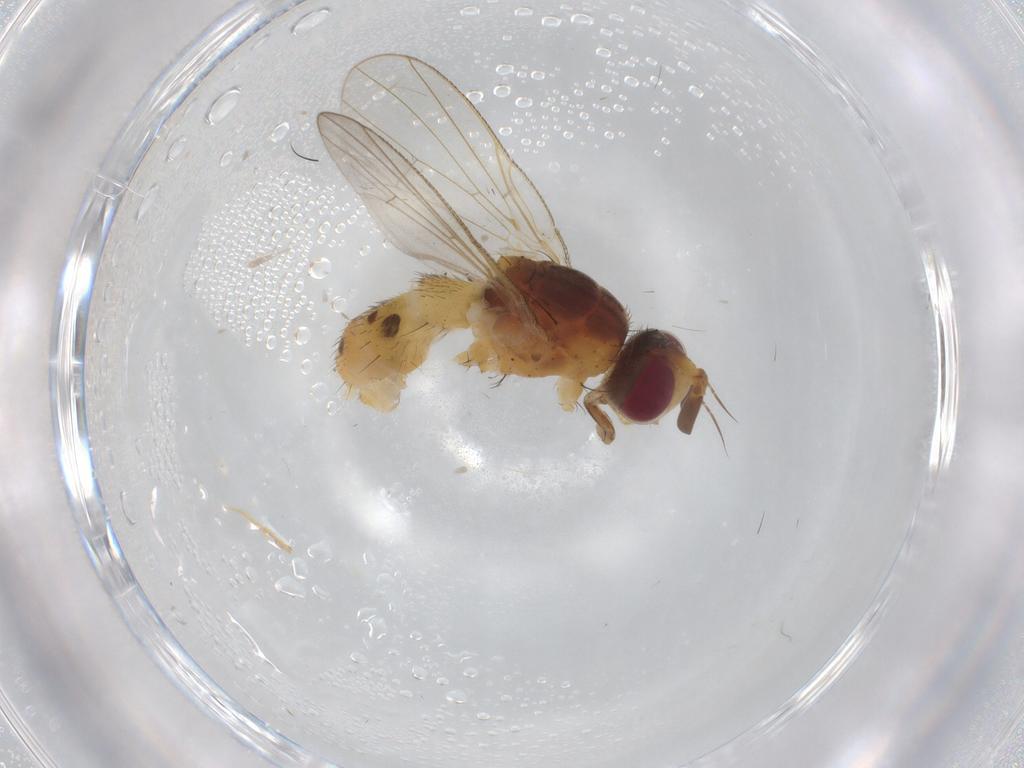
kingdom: Animalia
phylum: Arthropoda
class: Insecta
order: Diptera
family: Muscidae
